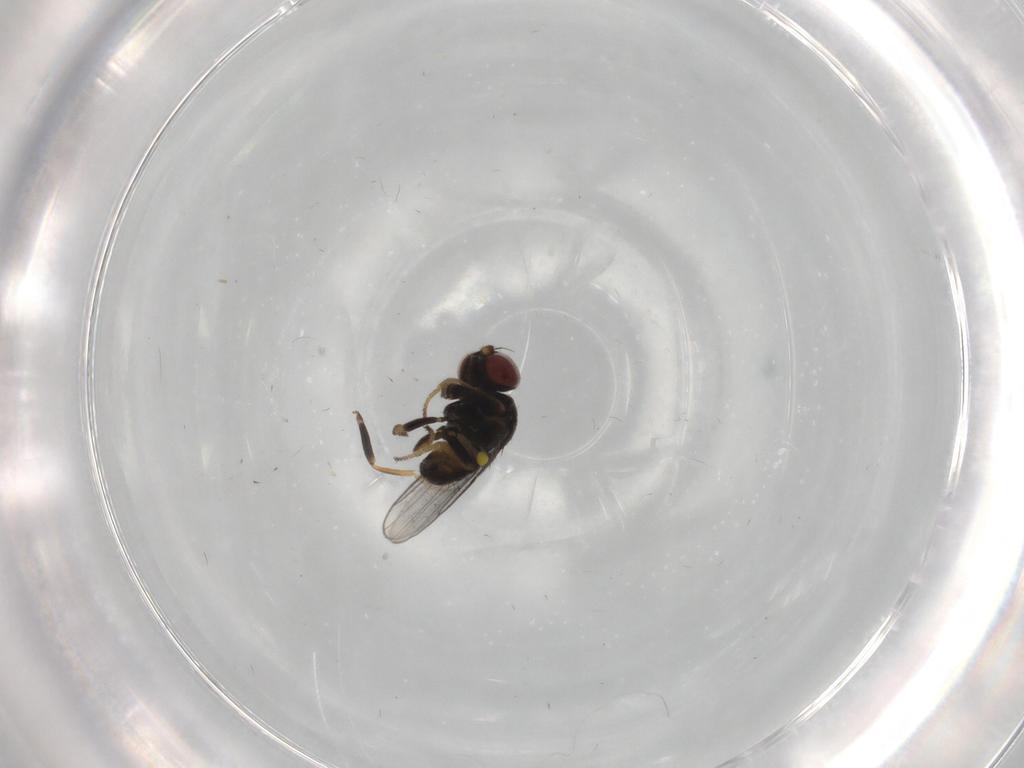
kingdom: Animalia
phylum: Arthropoda
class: Insecta
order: Diptera
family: Chloropidae
